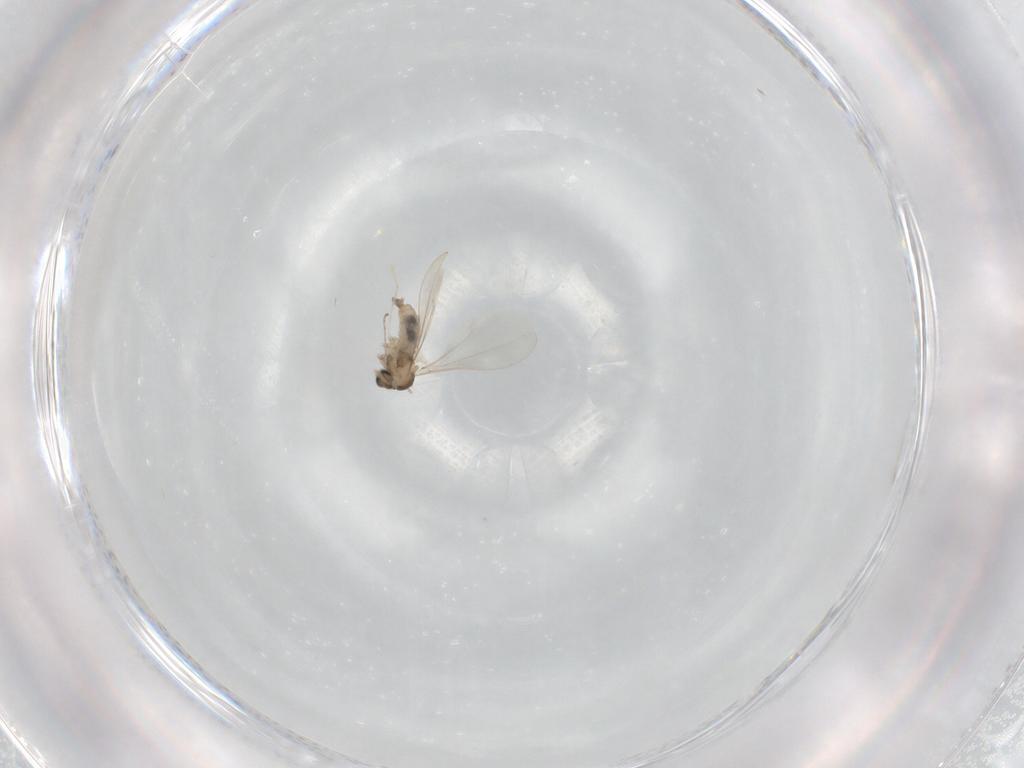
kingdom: Animalia
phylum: Arthropoda
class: Insecta
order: Diptera
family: Cecidomyiidae
